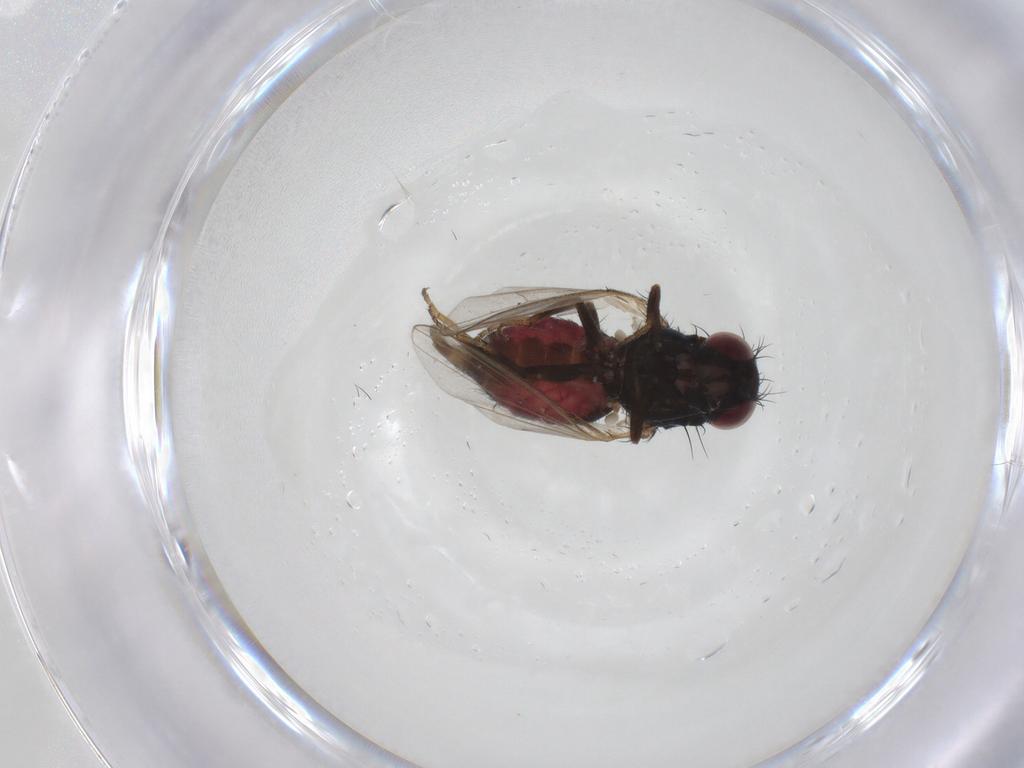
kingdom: Animalia
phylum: Arthropoda
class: Insecta
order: Diptera
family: Carnidae
